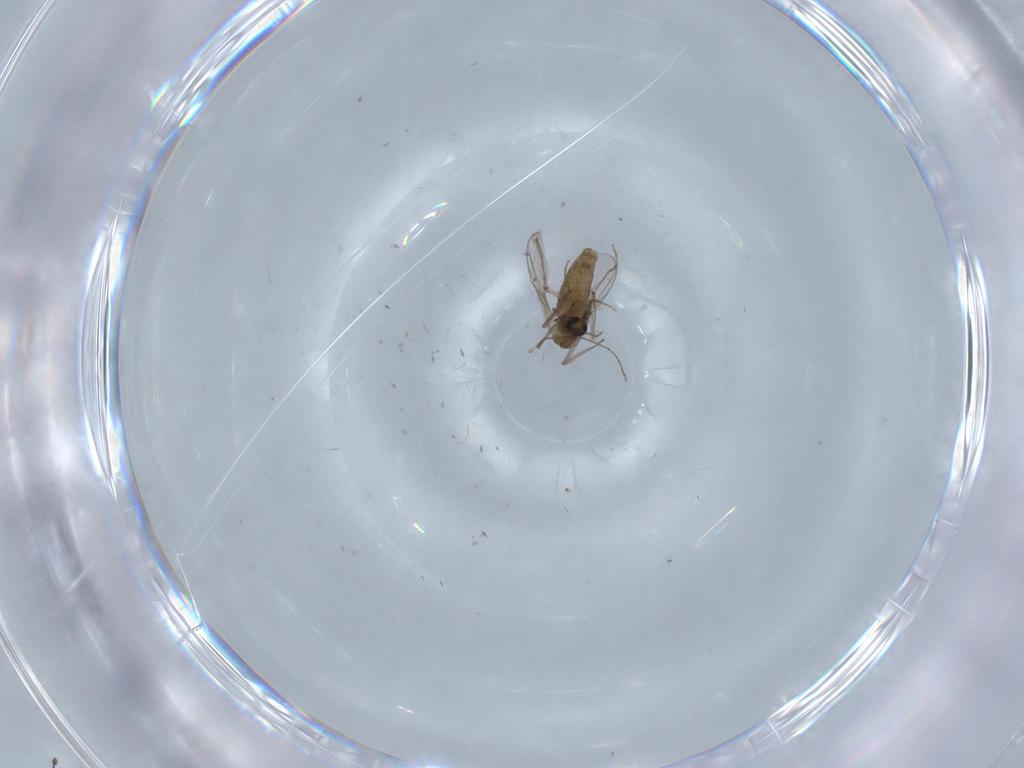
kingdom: Animalia
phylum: Arthropoda
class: Insecta
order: Diptera
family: Chironomidae
